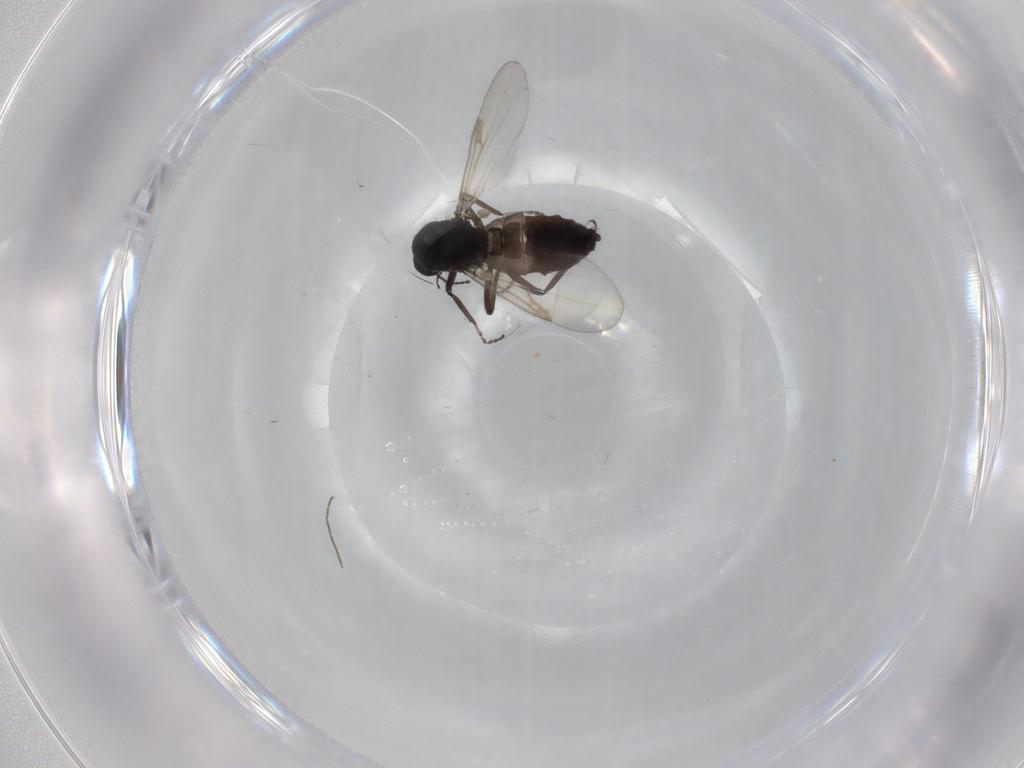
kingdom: Animalia
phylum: Arthropoda
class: Insecta
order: Diptera
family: Ceratopogonidae
